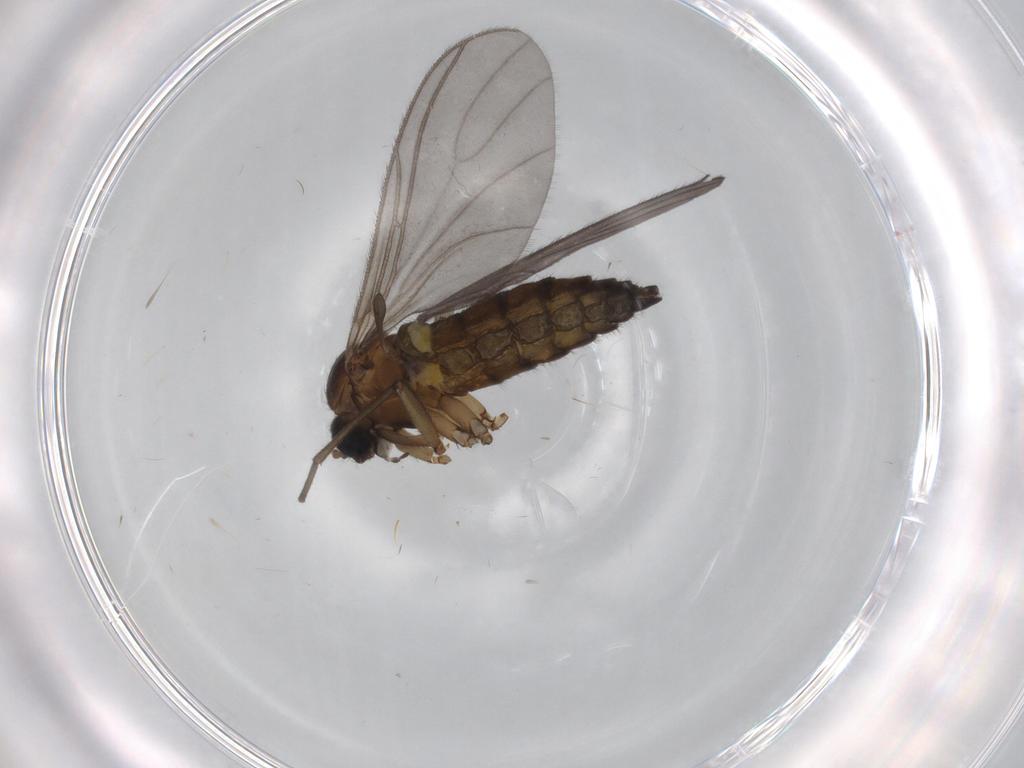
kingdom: Animalia
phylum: Arthropoda
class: Insecta
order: Diptera
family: Sciaridae
